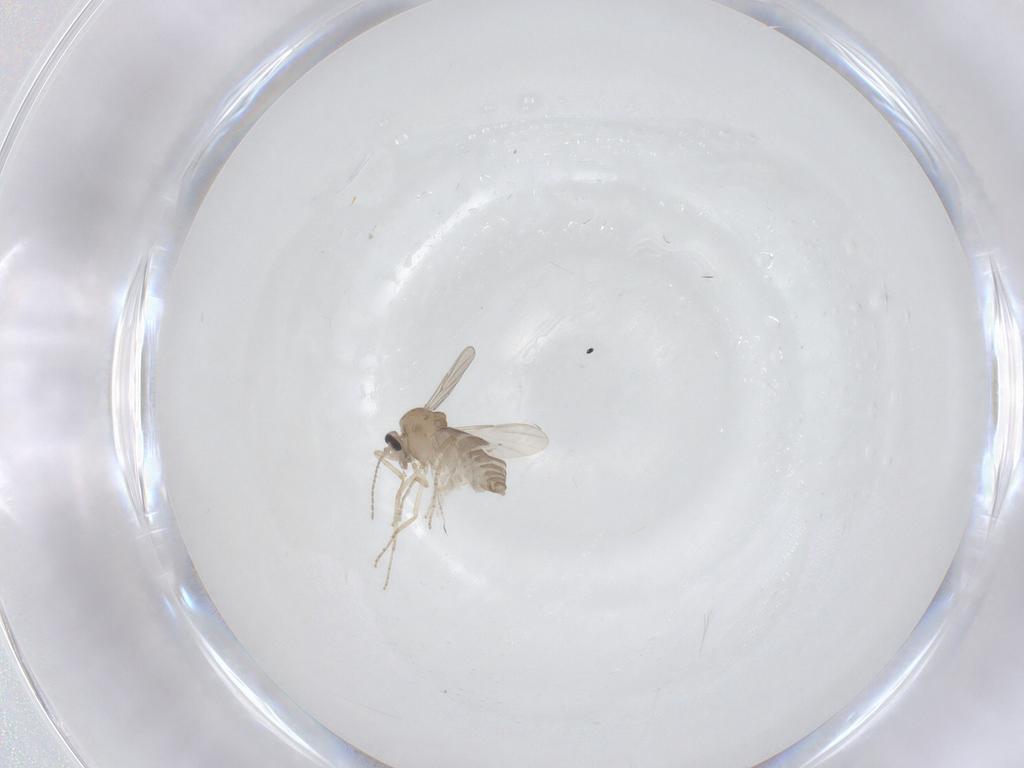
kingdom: Animalia
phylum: Arthropoda
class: Insecta
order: Diptera
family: Ceratopogonidae
